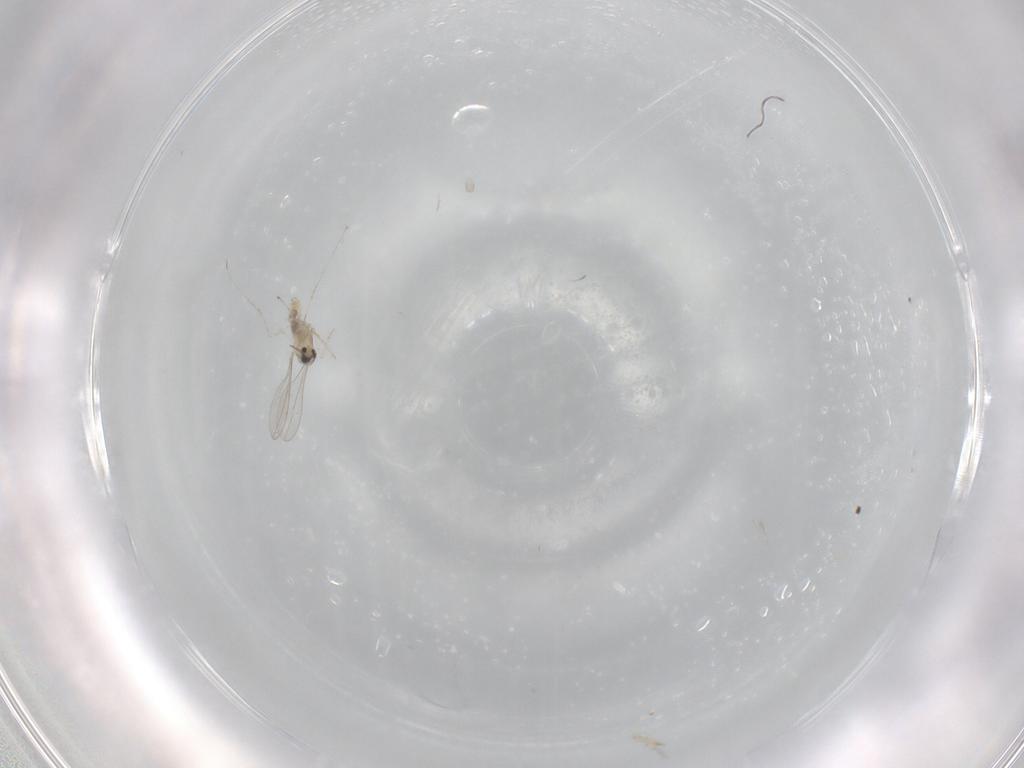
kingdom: Animalia
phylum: Arthropoda
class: Insecta
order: Diptera
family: Cecidomyiidae
